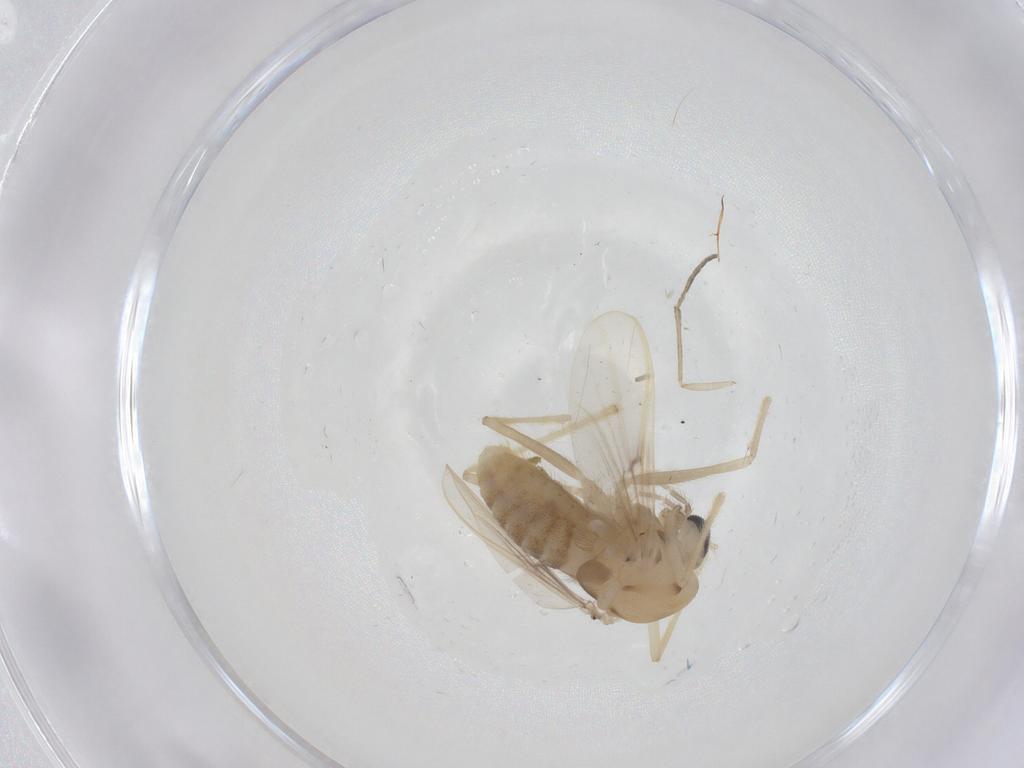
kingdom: Animalia
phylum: Arthropoda
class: Insecta
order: Diptera
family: Chironomidae
